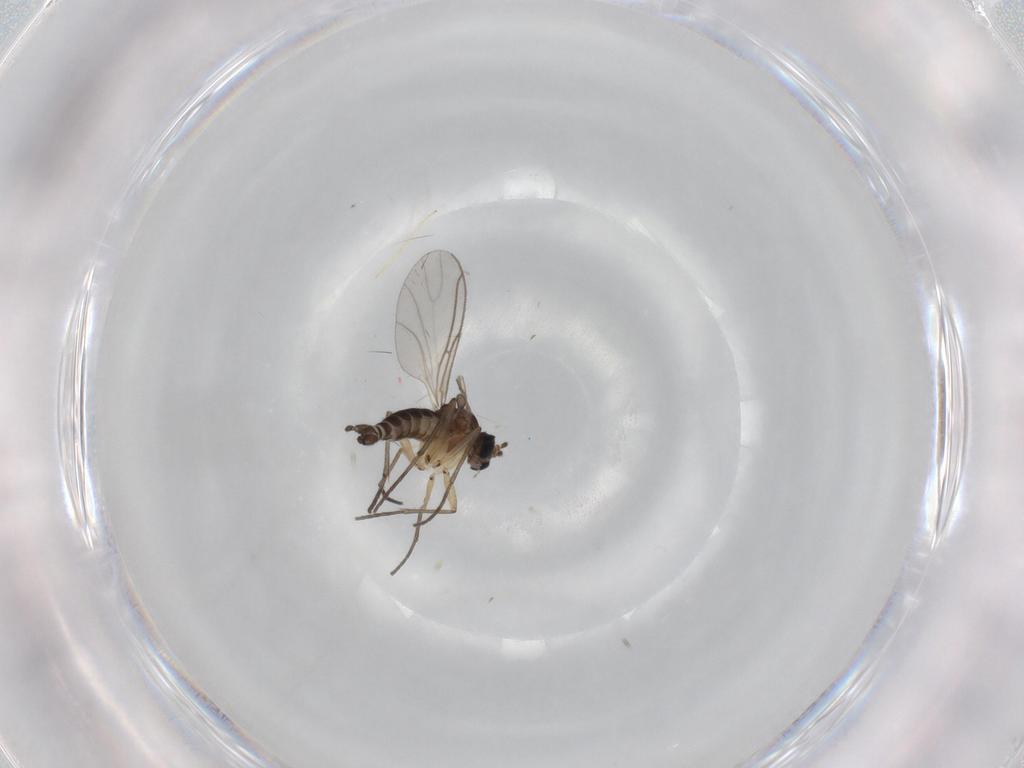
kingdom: Animalia
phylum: Arthropoda
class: Insecta
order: Diptera
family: Sciaridae
